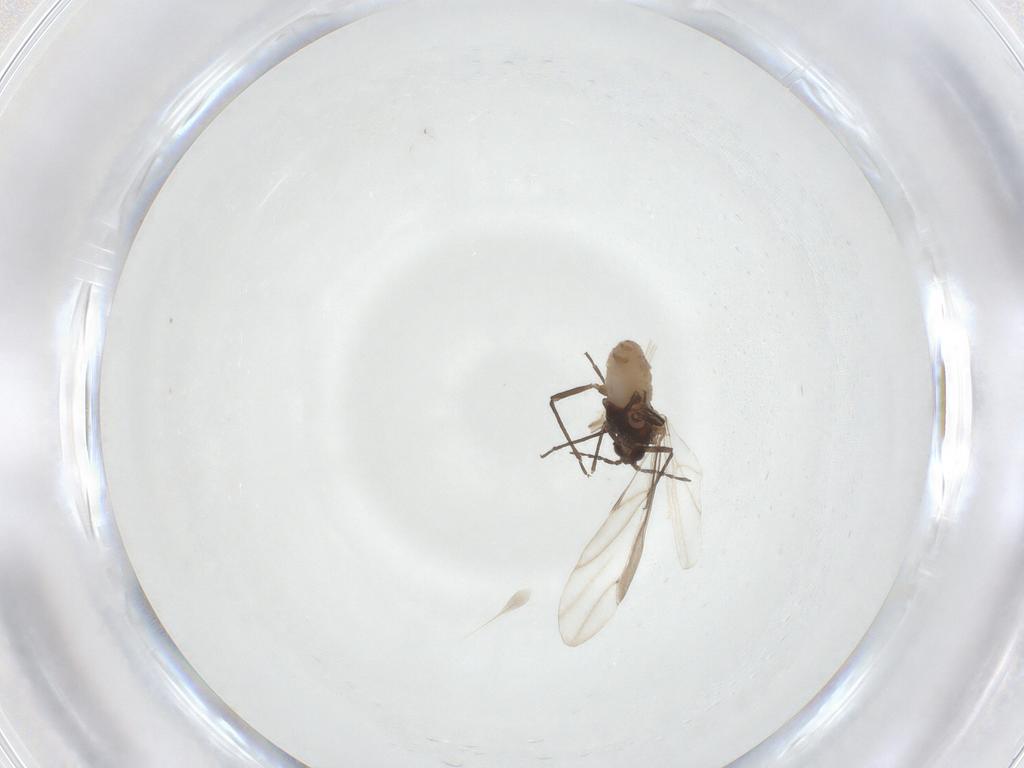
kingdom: Animalia
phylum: Arthropoda
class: Insecta
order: Hemiptera
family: Aphididae
